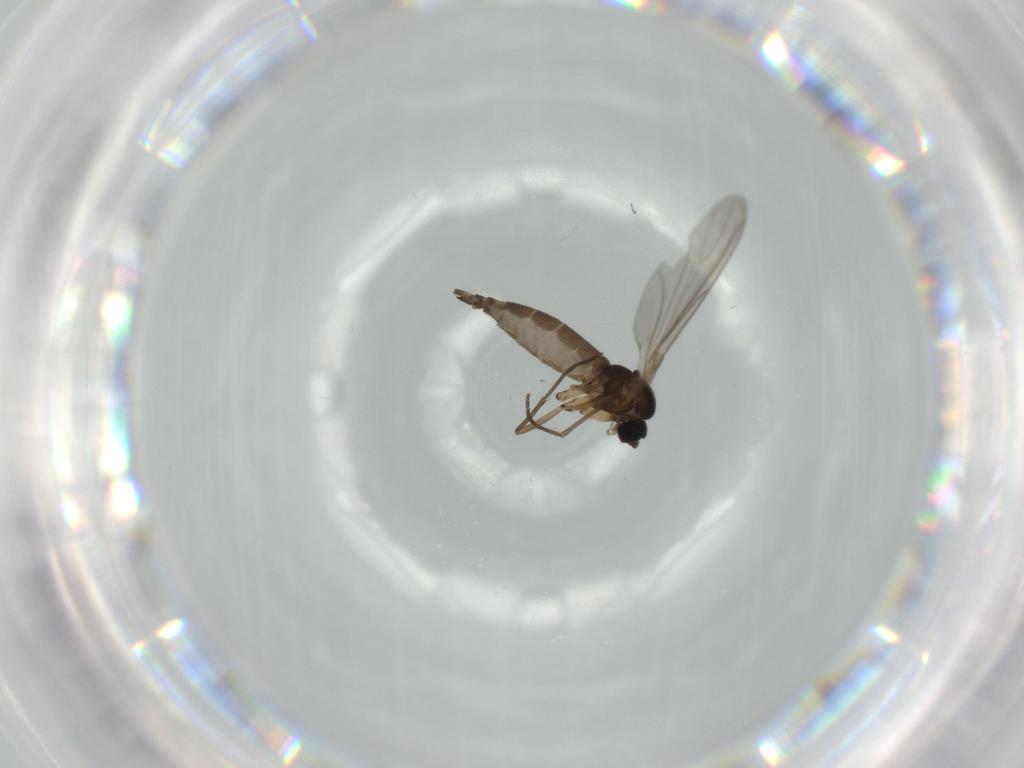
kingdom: Animalia
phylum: Arthropoda
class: Insecta
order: Diptera
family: Sciaridae
